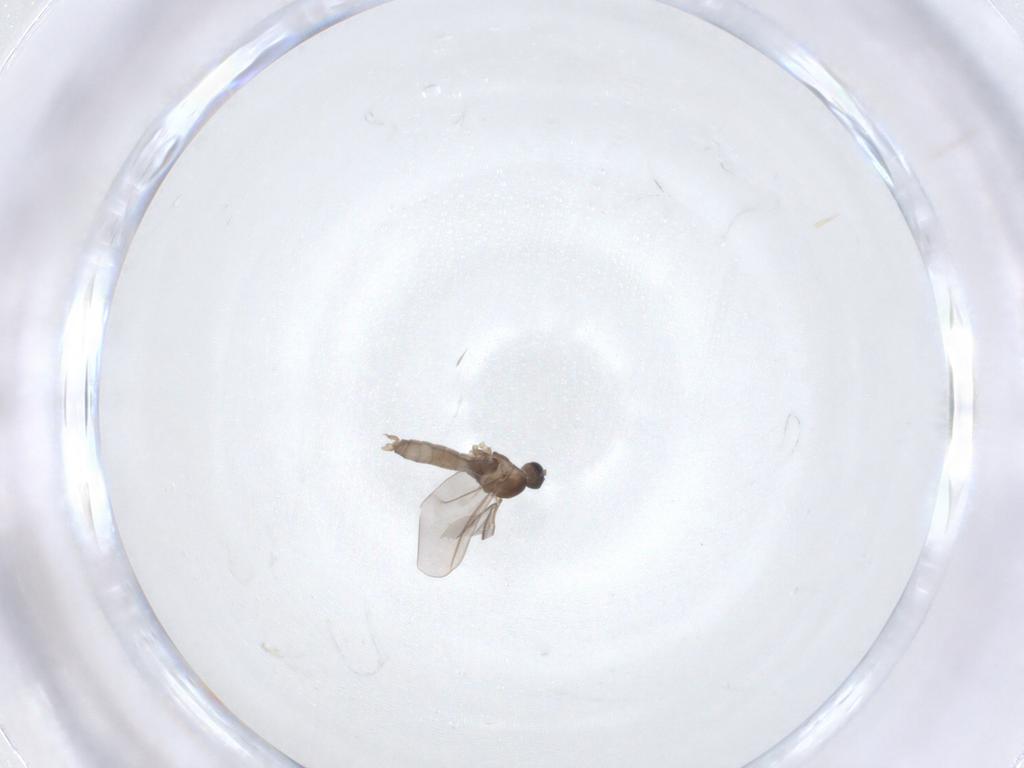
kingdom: Animalia
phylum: Arthropoda
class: Insecta
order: Diptera
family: Cecidomyiidae
